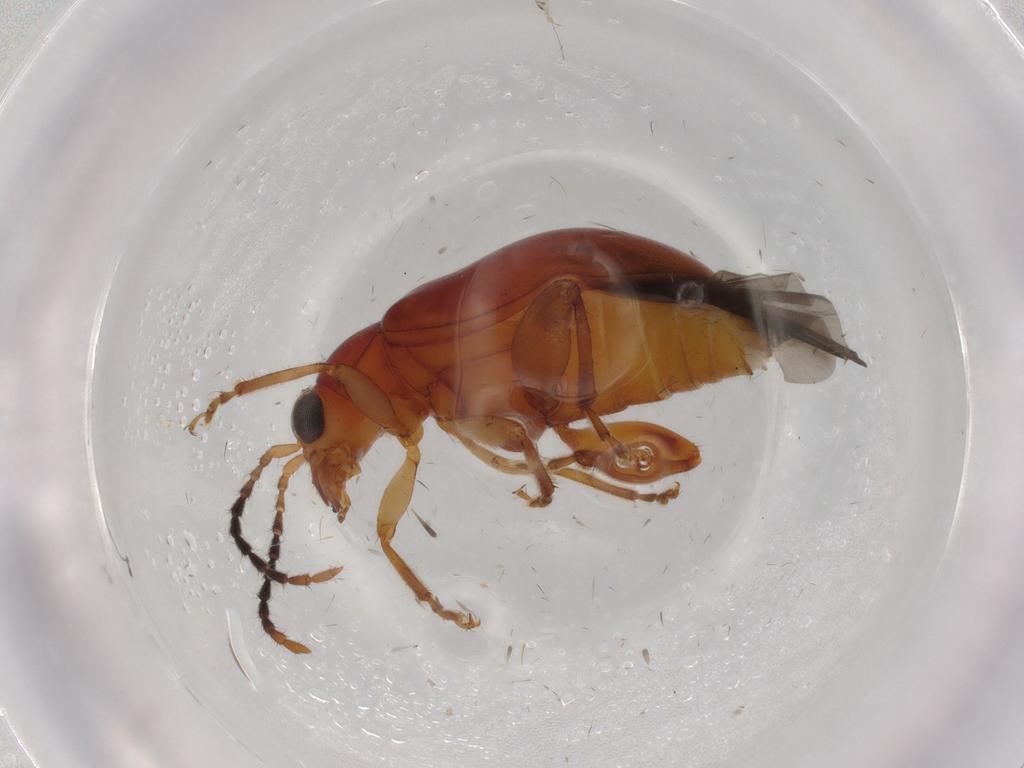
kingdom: Animalia
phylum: Arthropoda
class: Insecta
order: Coleoptera
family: Chrysomelidae
